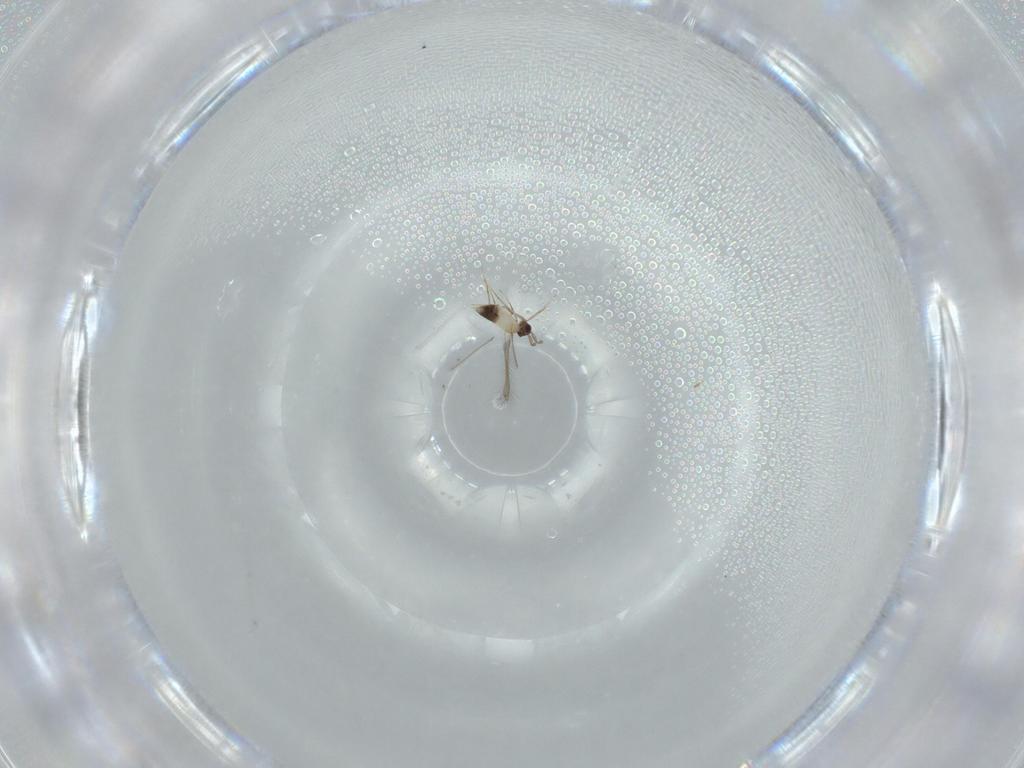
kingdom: Animalia
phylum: Arthropoda
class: Insecta
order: Hymenoptera
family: Mymaridae
